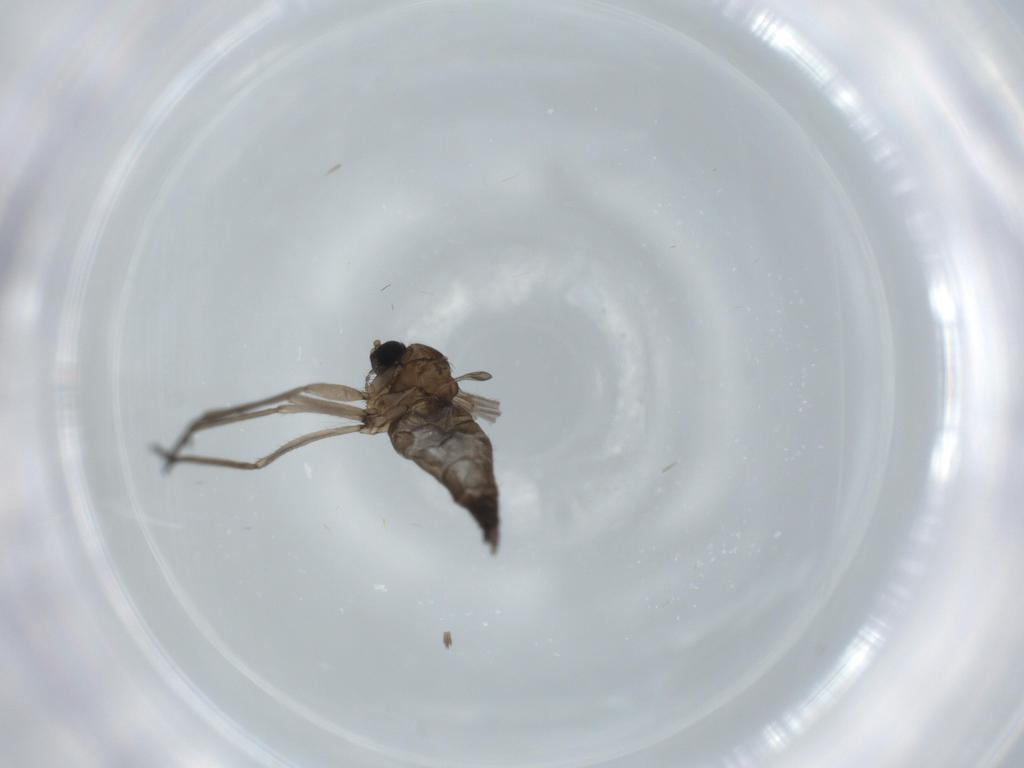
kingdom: Animalia
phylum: Arthropoda
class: Insecta
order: Diptera
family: Sciaridae
